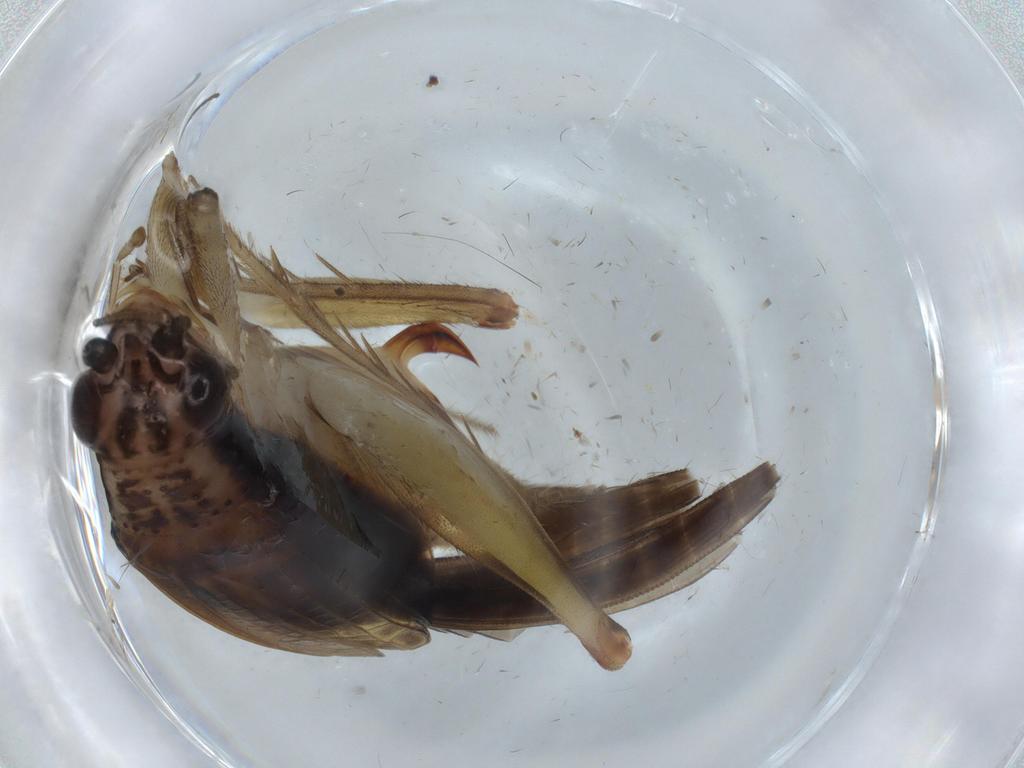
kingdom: Animalia
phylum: Arthropoda
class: Insecta
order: Orthoptera
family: Trigonidiidae
